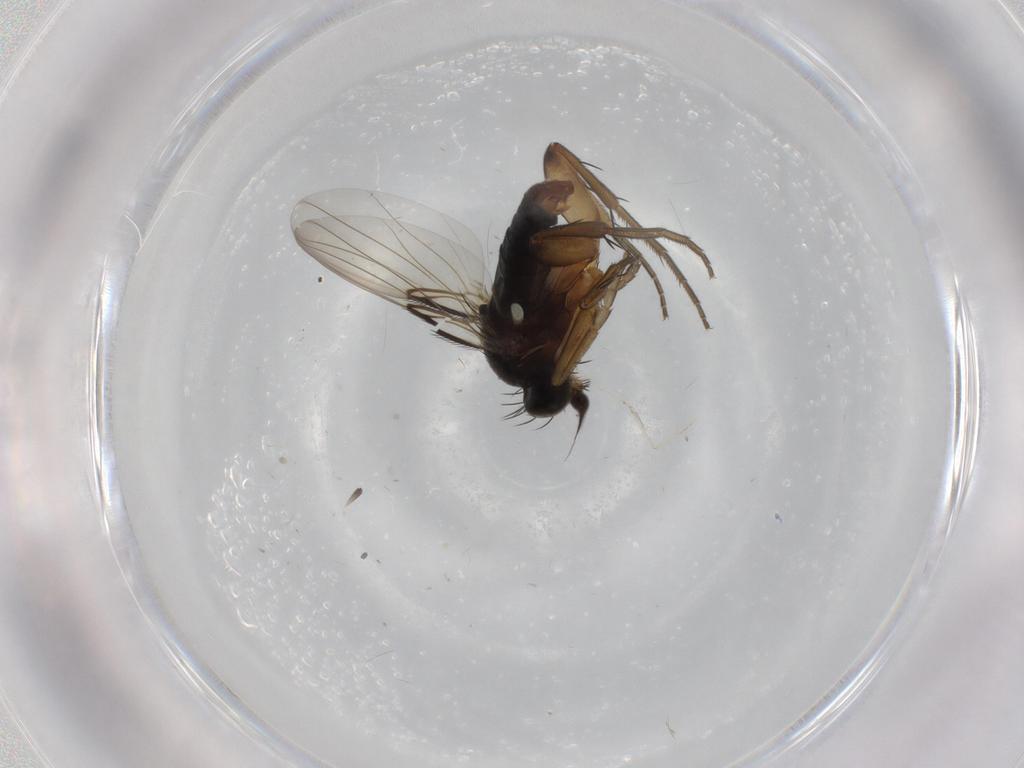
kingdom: Animalia
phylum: Arthropoda
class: Insecta
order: Diptera
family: Phoridae
